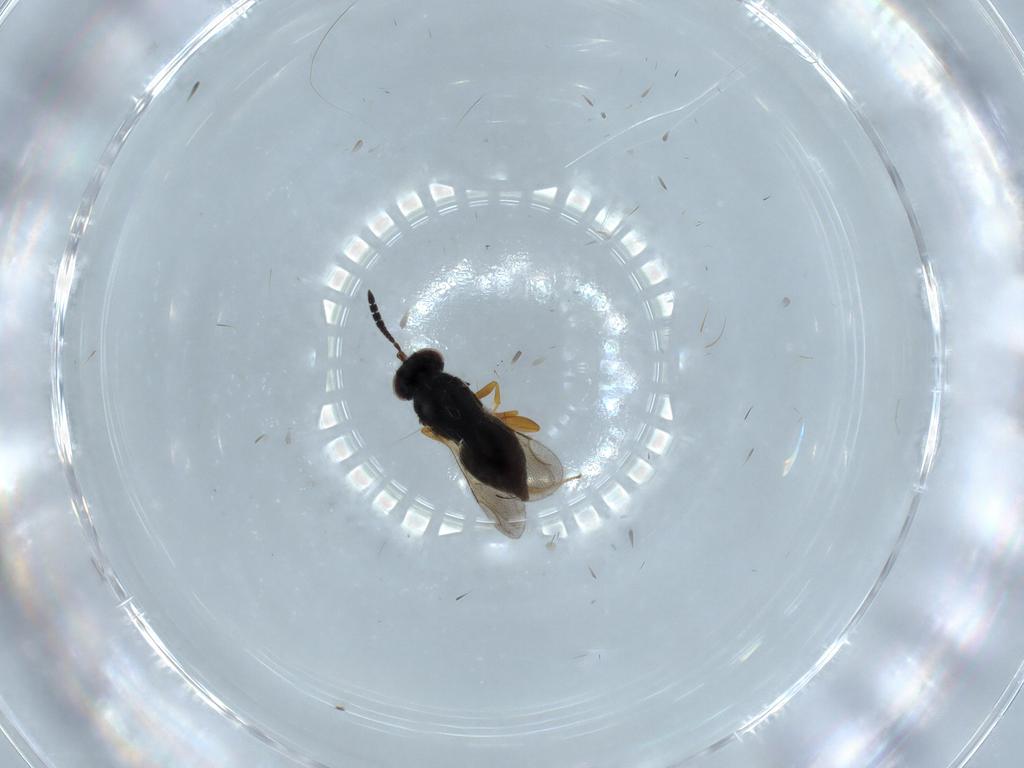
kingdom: Animalia
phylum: Arthropoda
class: Insecta
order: Hymenoptera
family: Ceraphronidae
